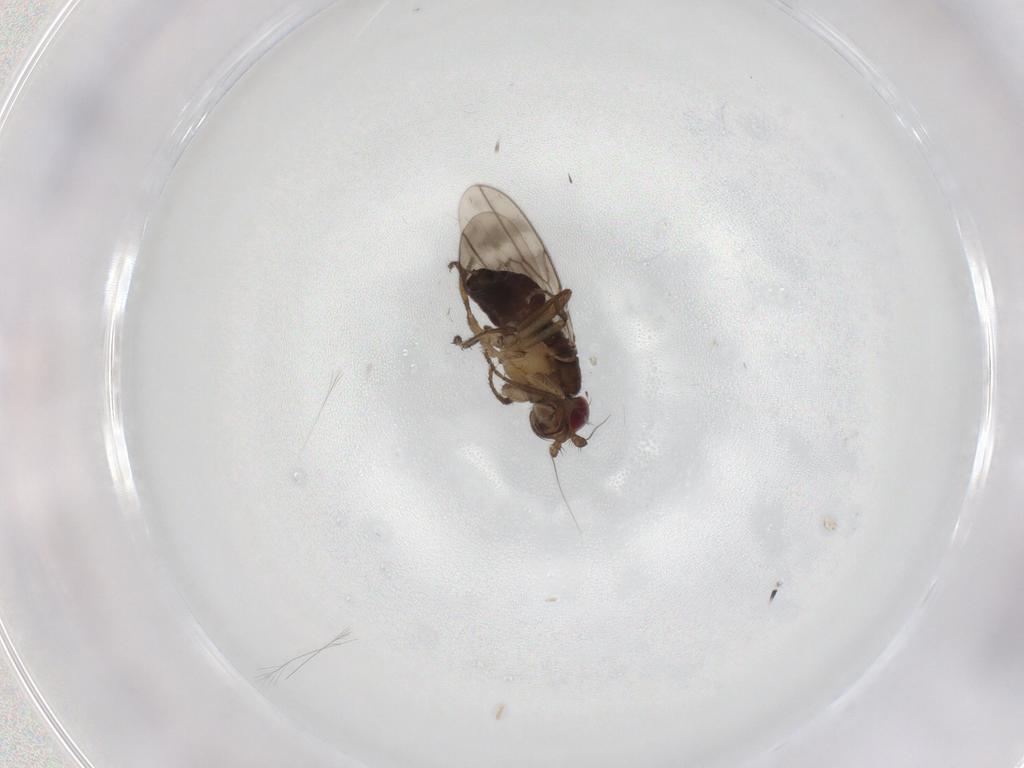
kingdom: Animalia
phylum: Arthropoda
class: Insecta
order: Diptera
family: Sphaeroceridae
